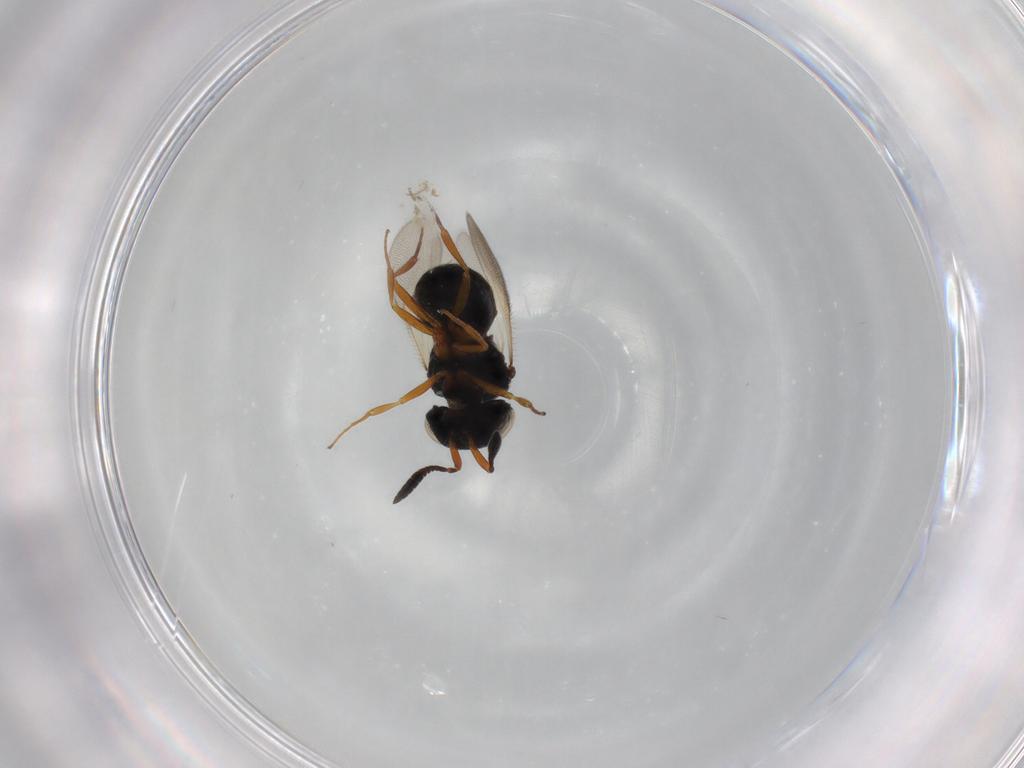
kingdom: Animalia
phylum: Arthropoda
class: Insecta
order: Hymenoptera
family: Scelionidae
